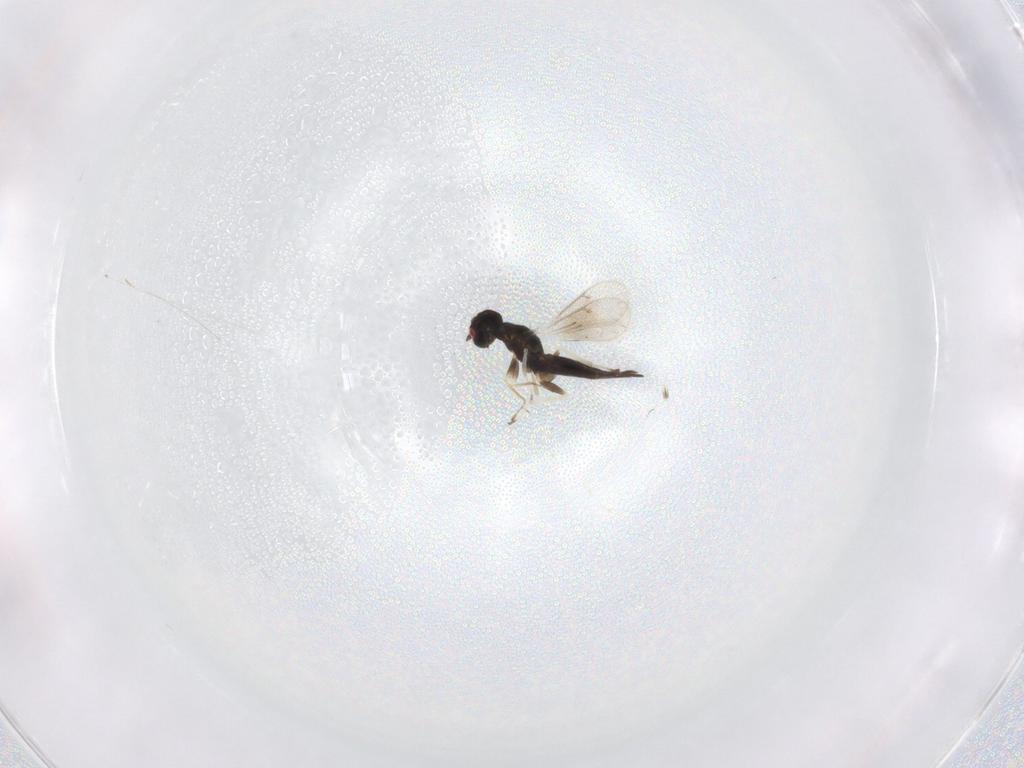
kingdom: Animalia
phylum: Arthropoda
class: Insecta
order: Hymenoptera
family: Eulophidae
